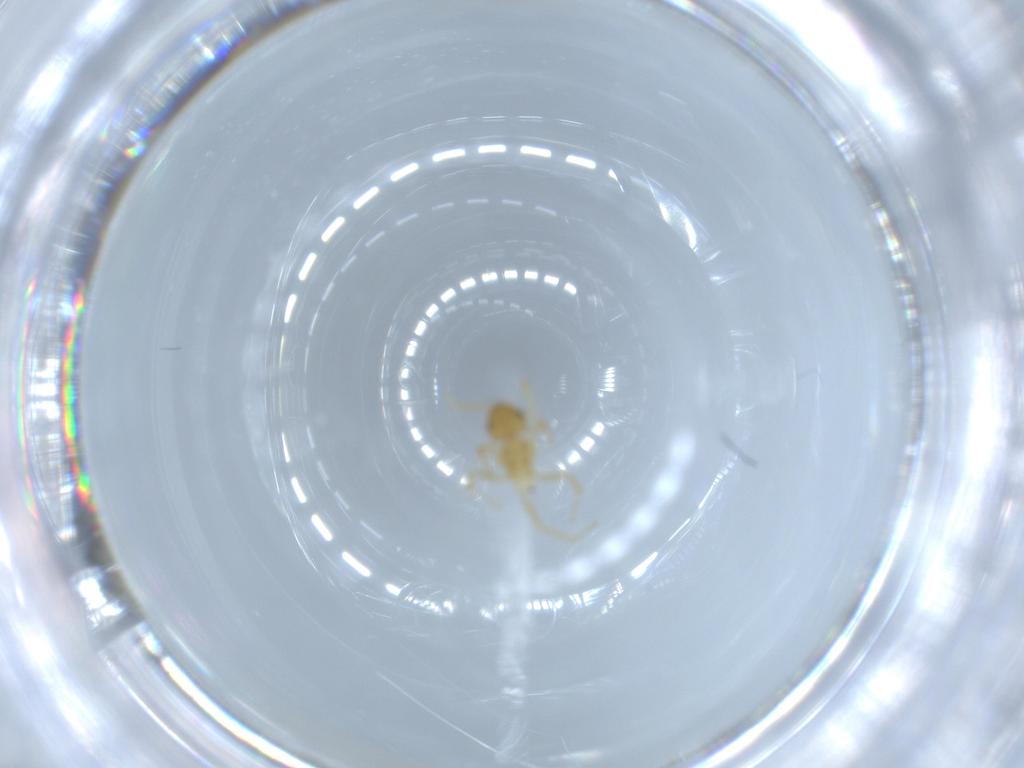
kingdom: Animalia
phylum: Arthropoda
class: Insecta
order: Hymenoptera
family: Formicidae
